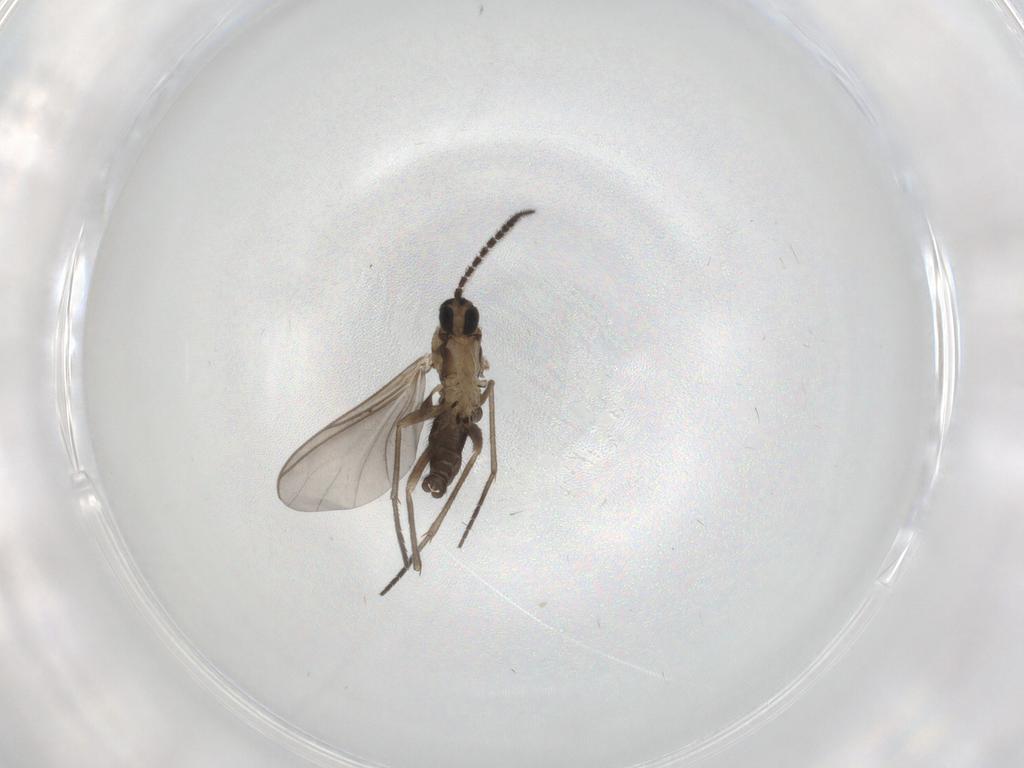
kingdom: Animalia
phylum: Arthropoda
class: Insecta
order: Diptera
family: Sciaridae
